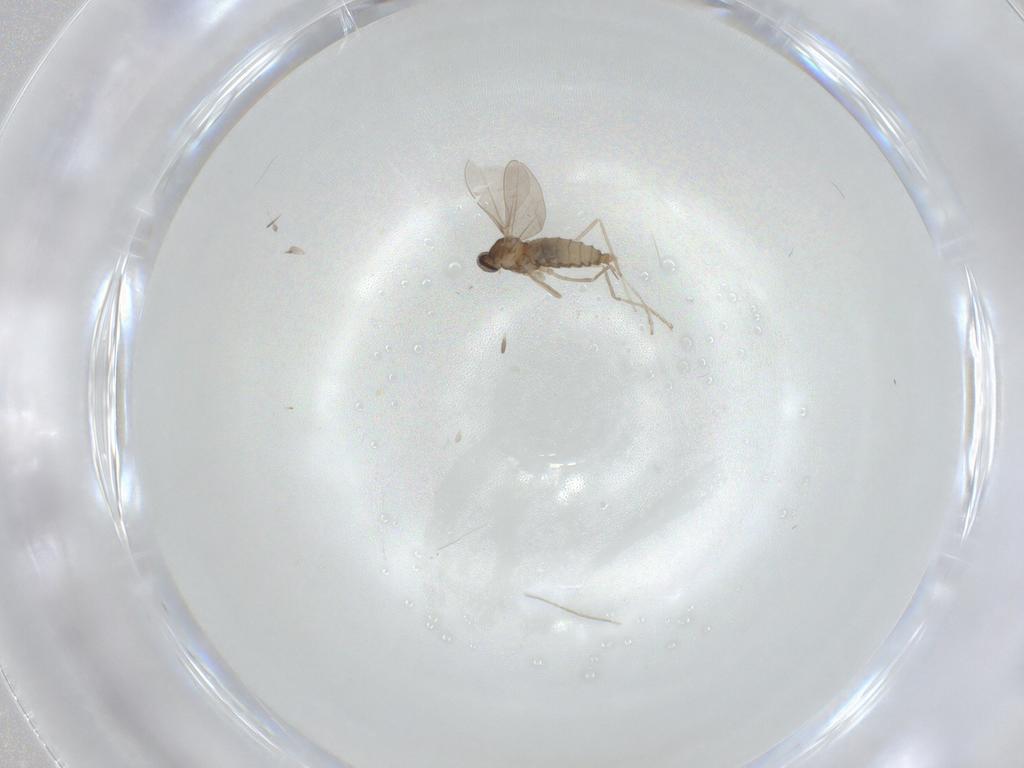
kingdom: Animalia
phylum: Arthropoda
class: Insecta
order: Diptera
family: Cecidomyiidae
